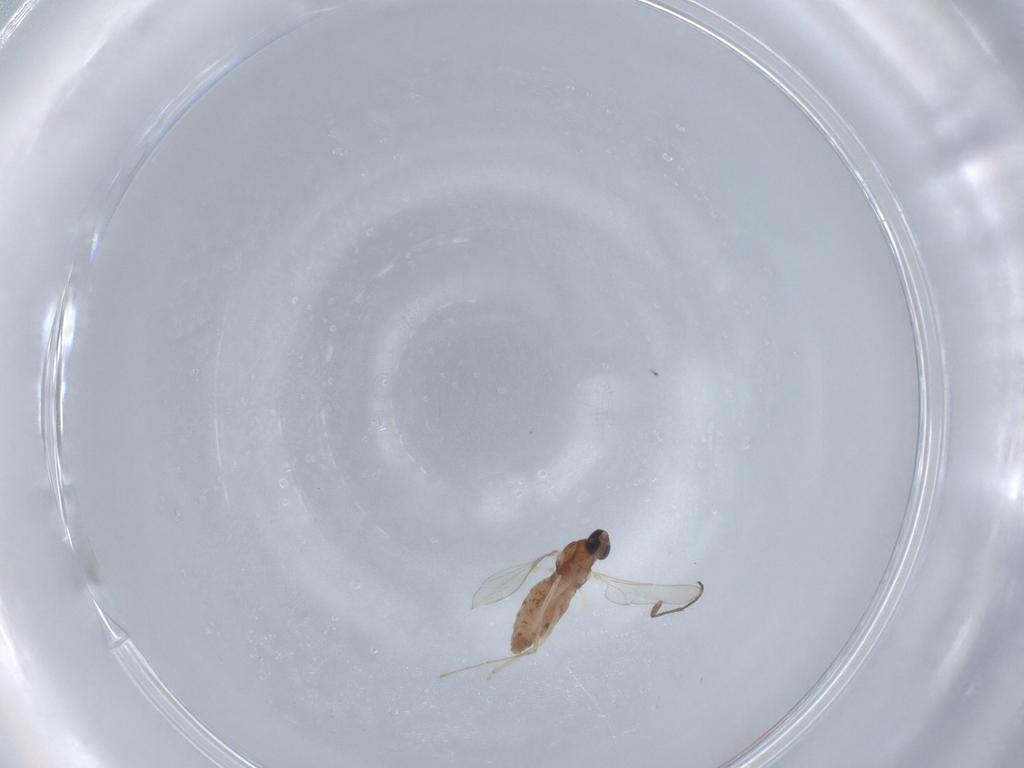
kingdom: Animalia
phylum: Arthropoda
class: Insecta
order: Diptera
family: Cecidomyiidae
